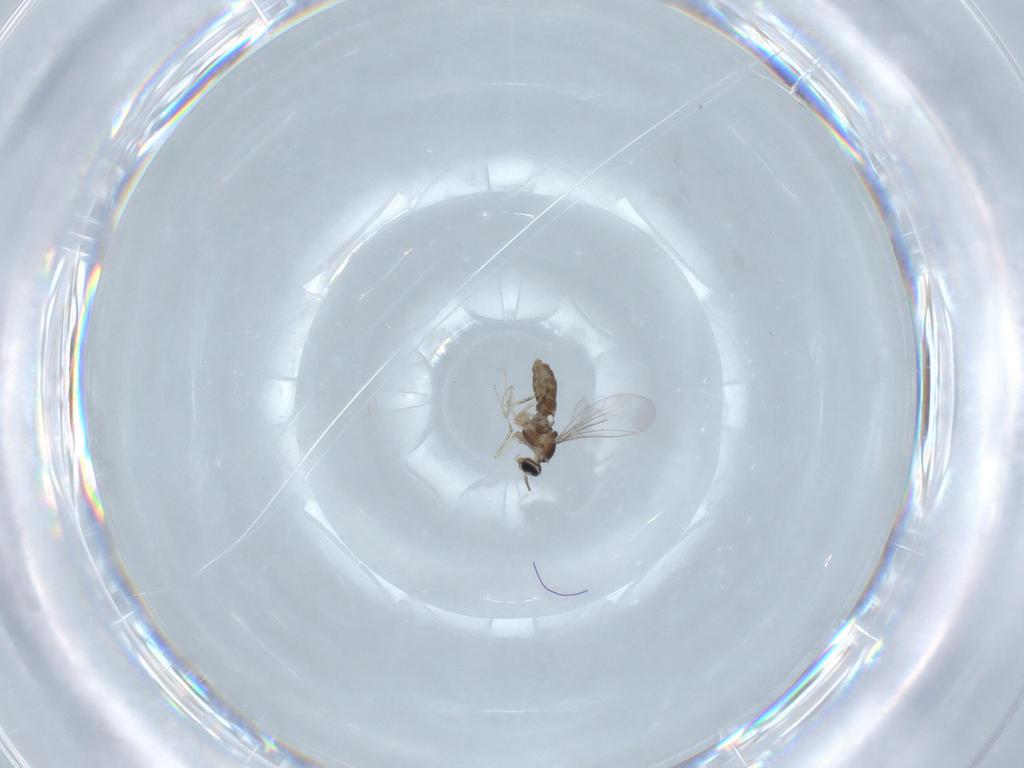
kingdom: Animalia
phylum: Arthropoda
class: Insecta
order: Diptera
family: Cecidomyiidae
